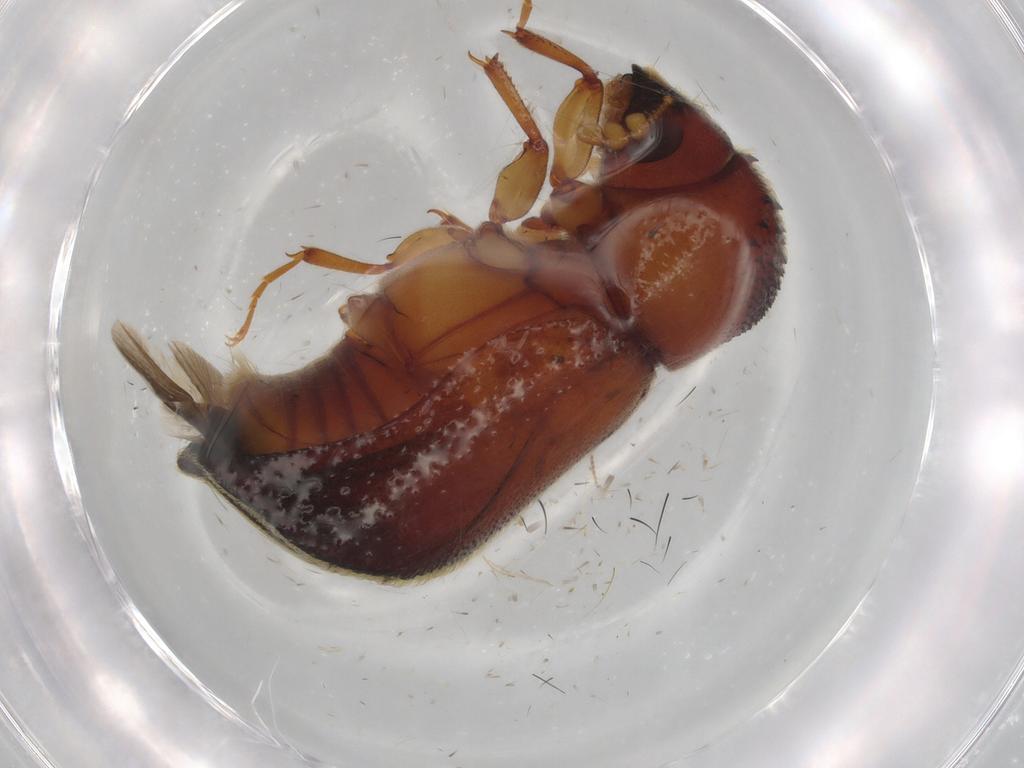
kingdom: Animalia
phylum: Arthropoda
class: Insecta
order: Coleoptera
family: Bostrichidae
